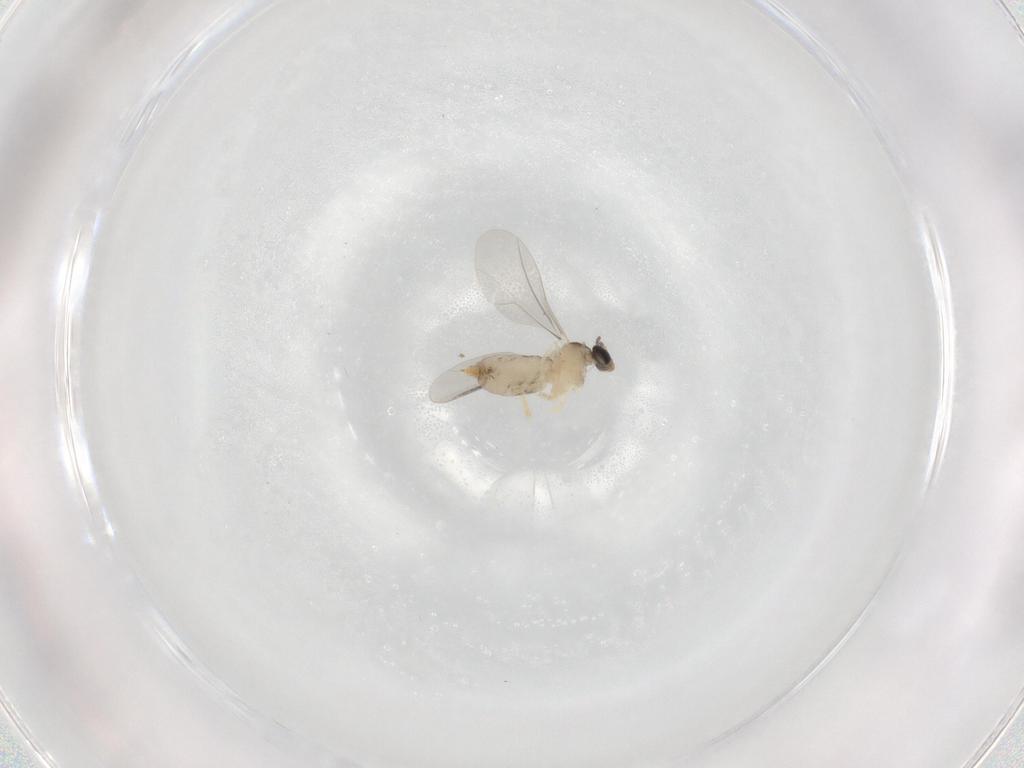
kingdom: Animalia
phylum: Arthropoda
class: Insecta
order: Diptera
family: Cecidomyiidae
